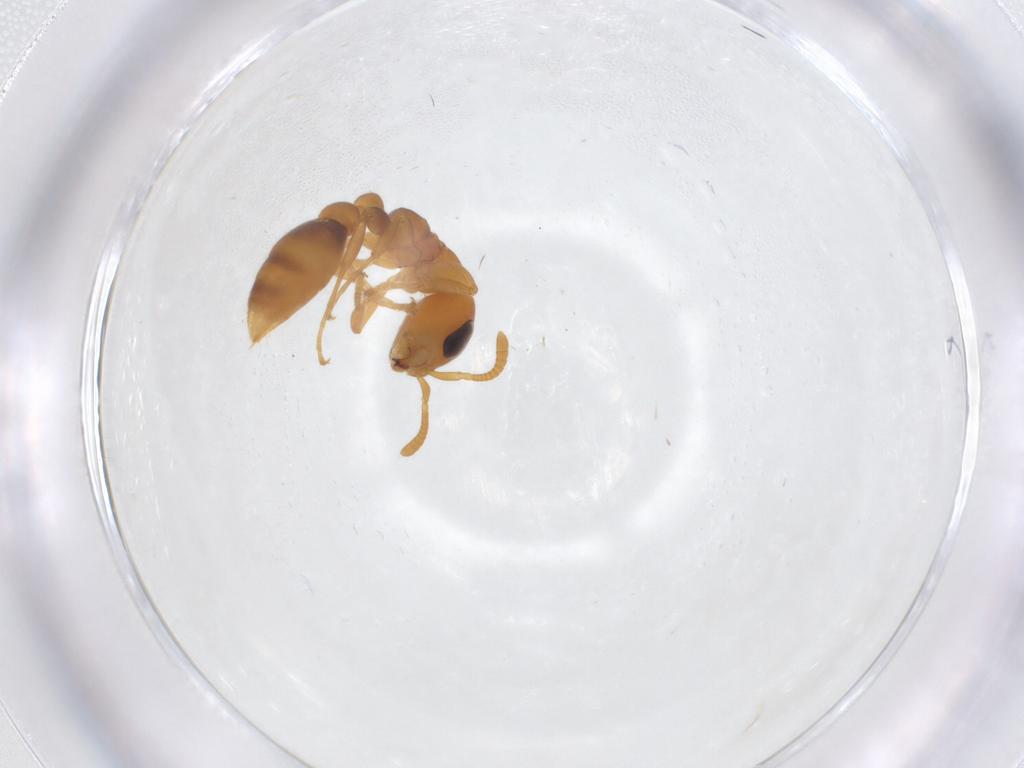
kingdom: Animalia
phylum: Arthropoda
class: Insecta
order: Hymenoptera
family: Formicidae
